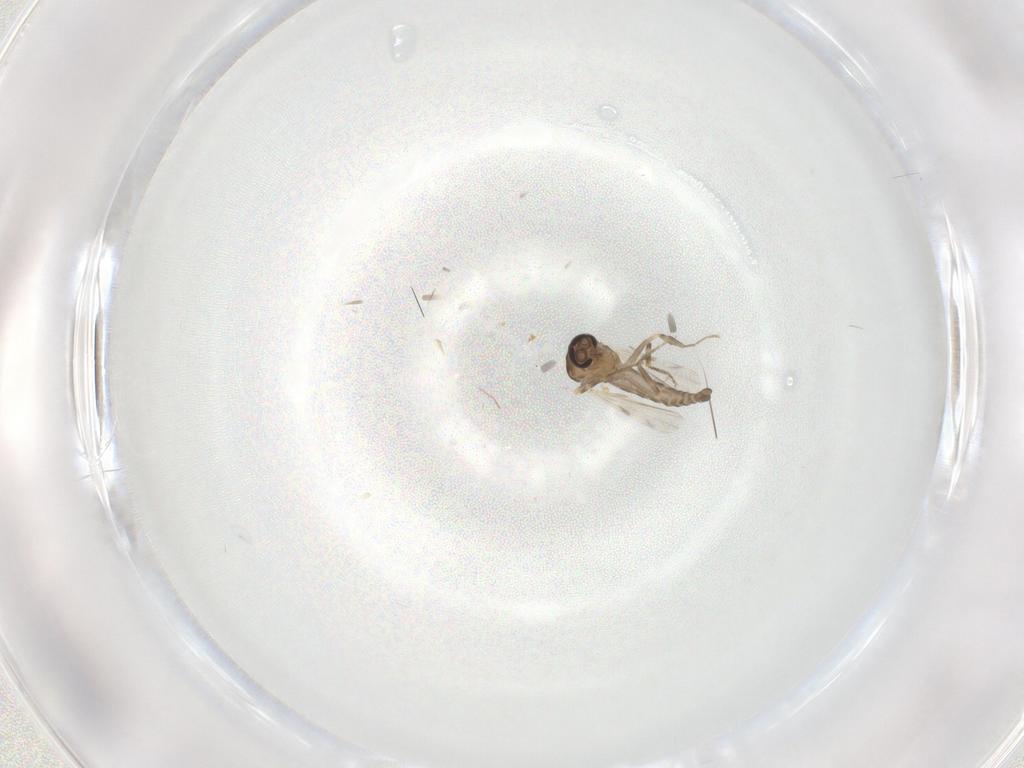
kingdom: Animalia
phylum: Arthropoda
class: Insecta
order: Diptera
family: Ceratopogonidae
